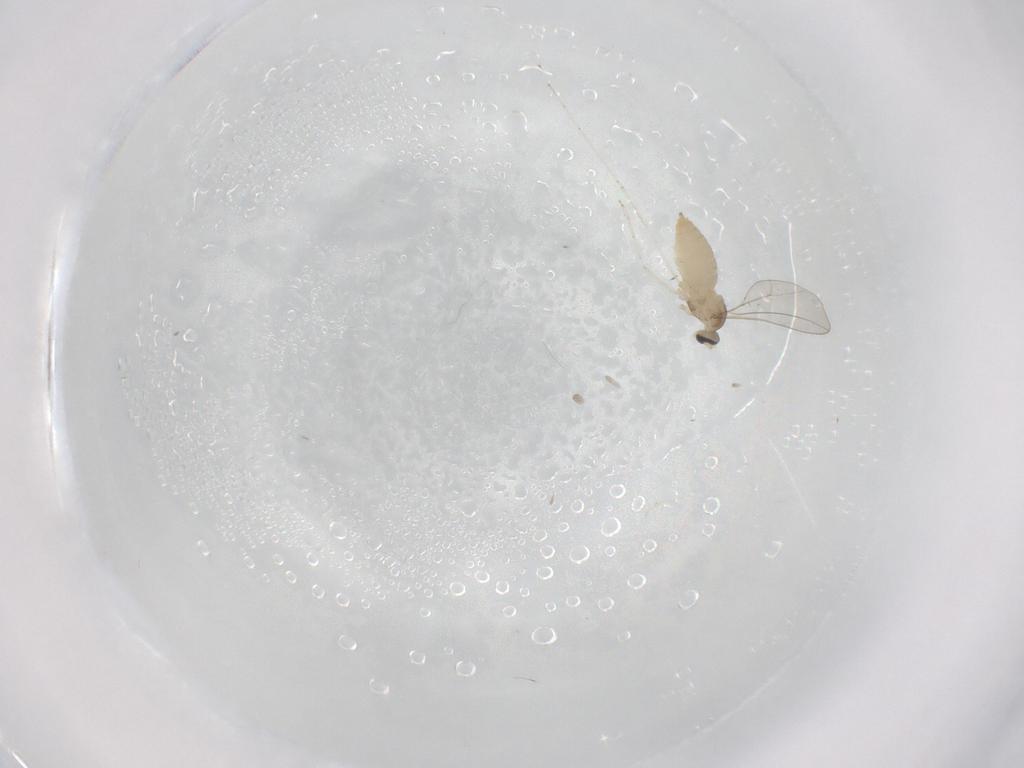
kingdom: Animalia
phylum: Arthropoda
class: Insecta
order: Diptera
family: Cecidomyiidae
